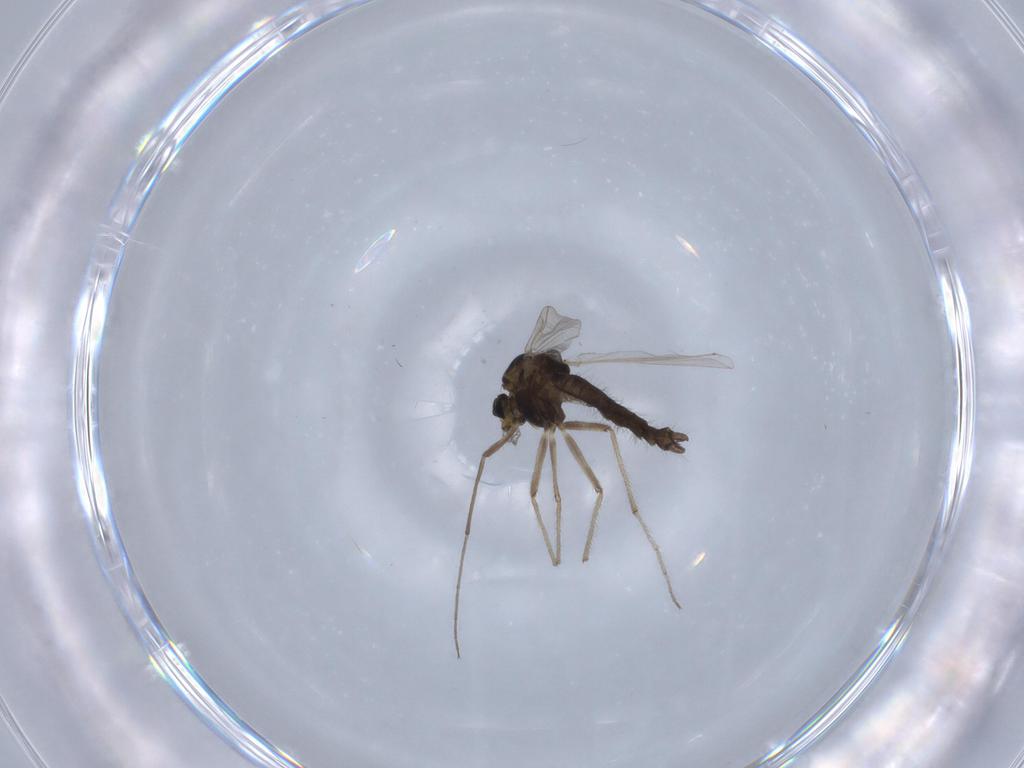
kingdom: Animalia
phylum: Arthropoda
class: Insecta
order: Diptera
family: Chironomidae
